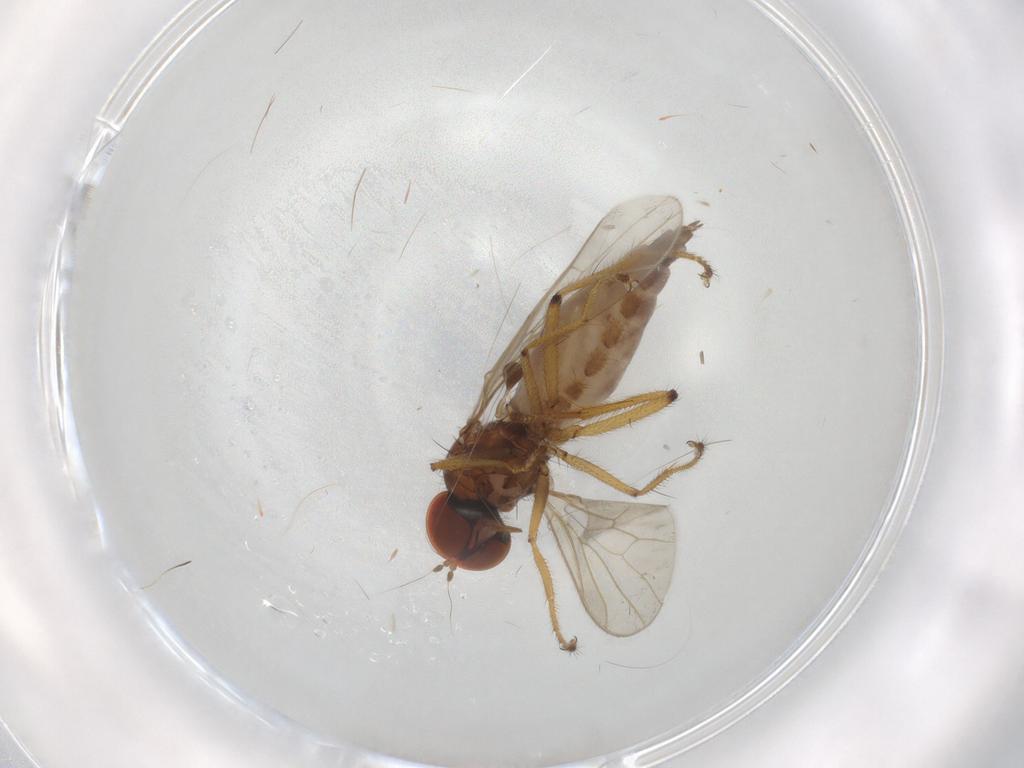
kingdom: Animalia
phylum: Arthropoda
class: Insecta
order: Diptera
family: Hybotidae
